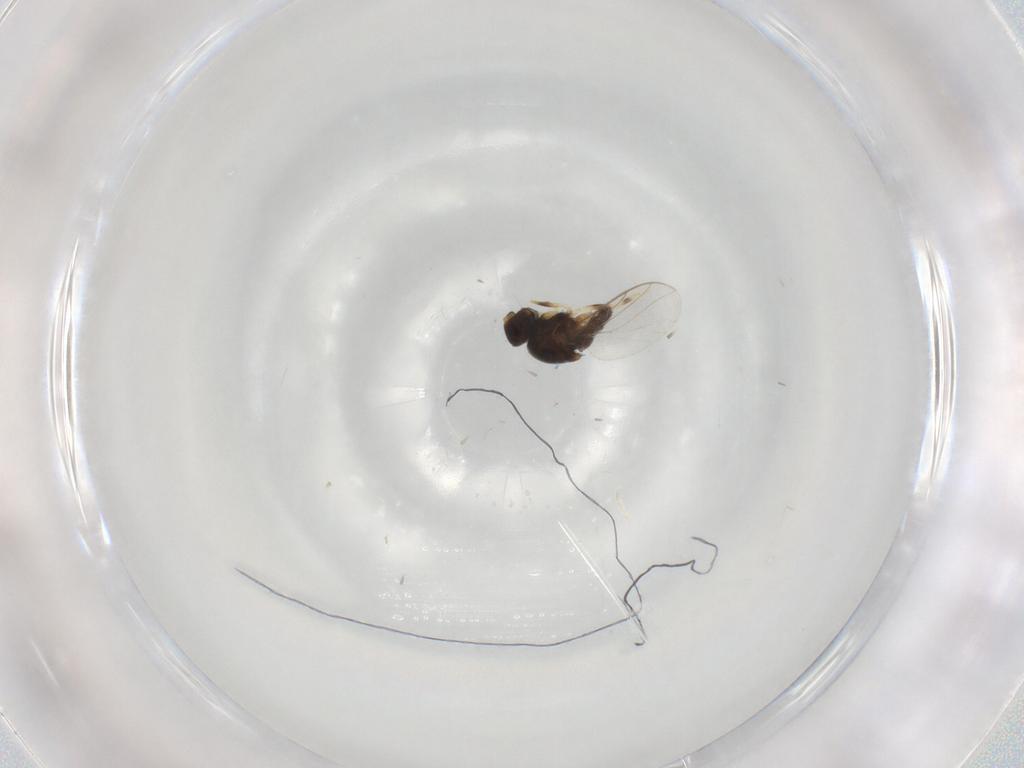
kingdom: Animalia
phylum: Arthropoda
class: Insecta
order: Diptera
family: Chloropidae
